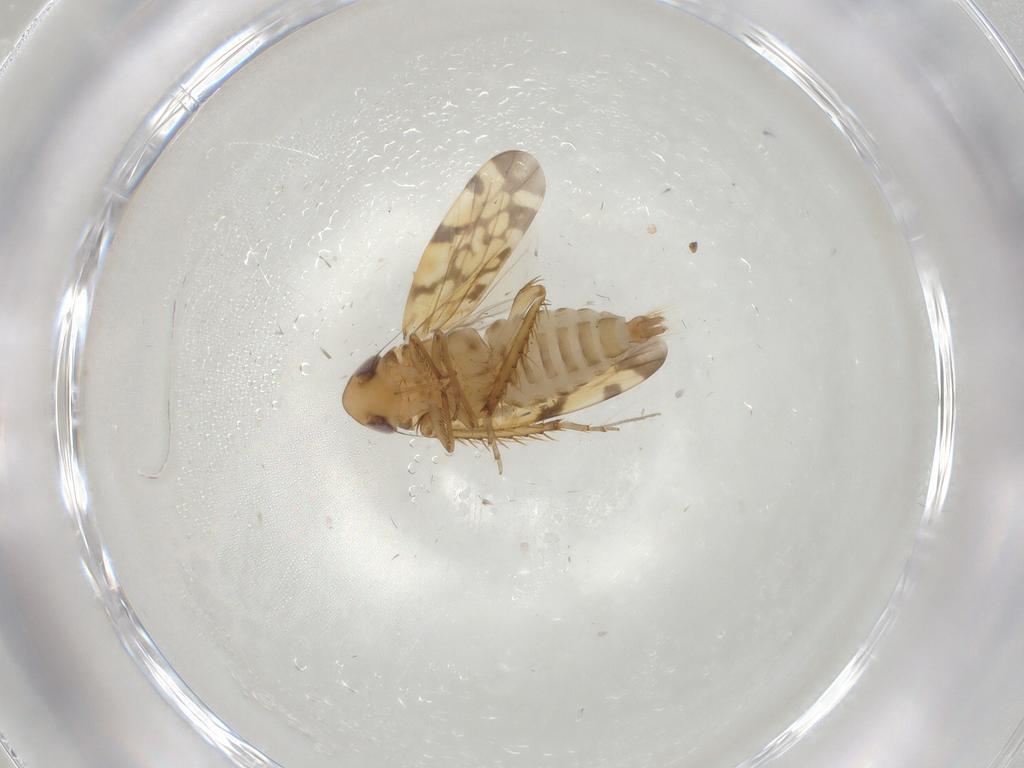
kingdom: Animalia
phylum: Arthropoda
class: Insecta
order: Hemiptera
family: Cicadellidae
